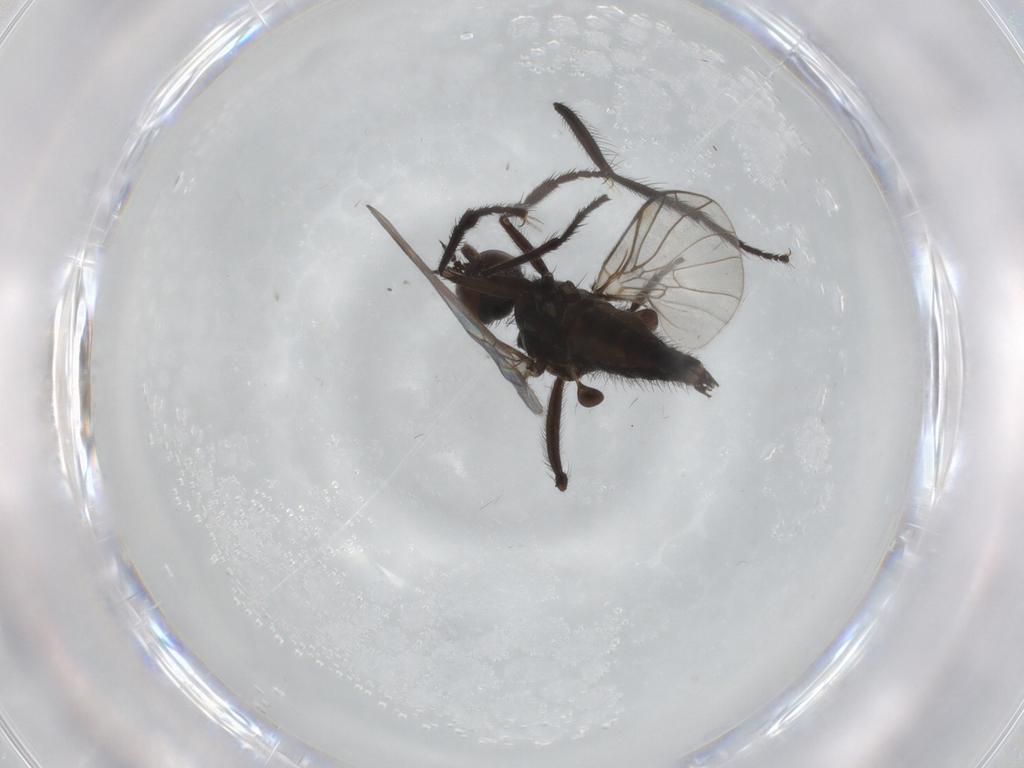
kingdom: Animalia
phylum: Arthropoda
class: Insecta
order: Diptera
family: Empididae
